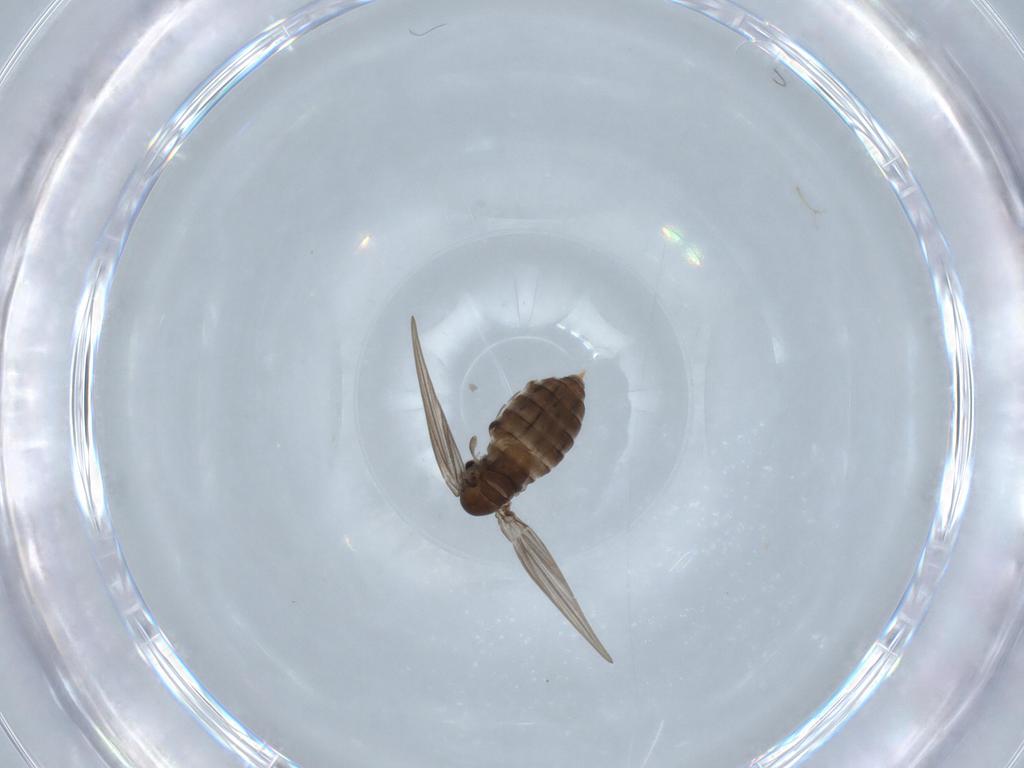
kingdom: Animalia
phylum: Arthropoda
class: Insecta
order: Diptera
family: Psychodidae
